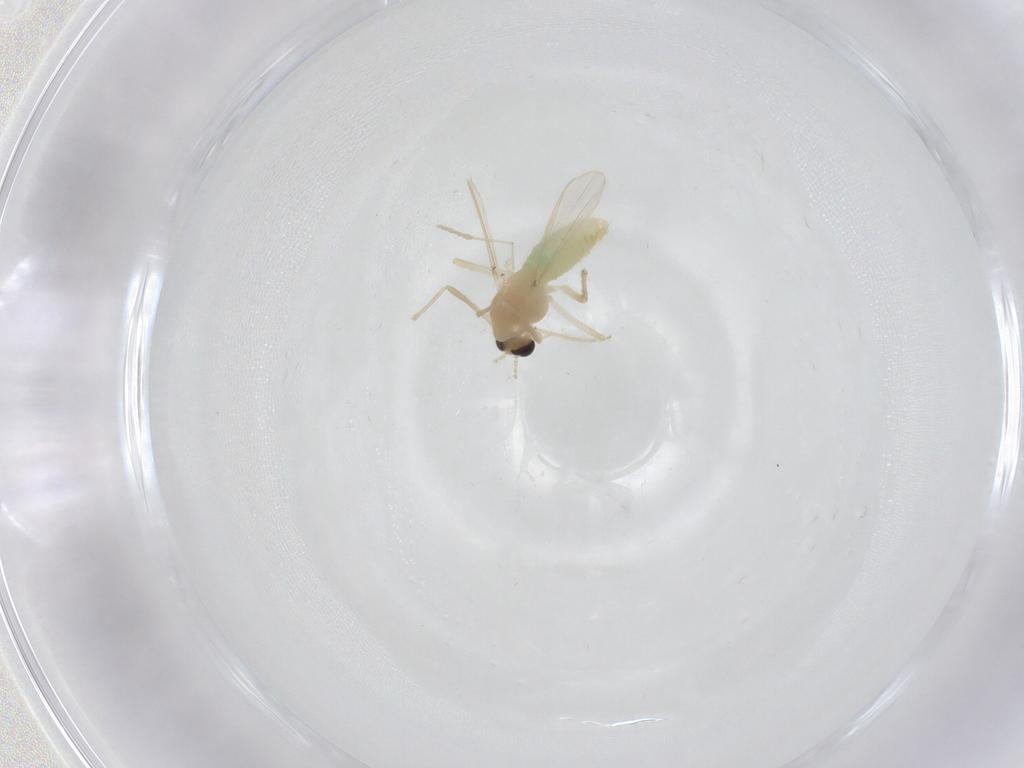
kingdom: Animalia
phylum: Arthropoda
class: Insecta
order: Diptera
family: Chironomidae
